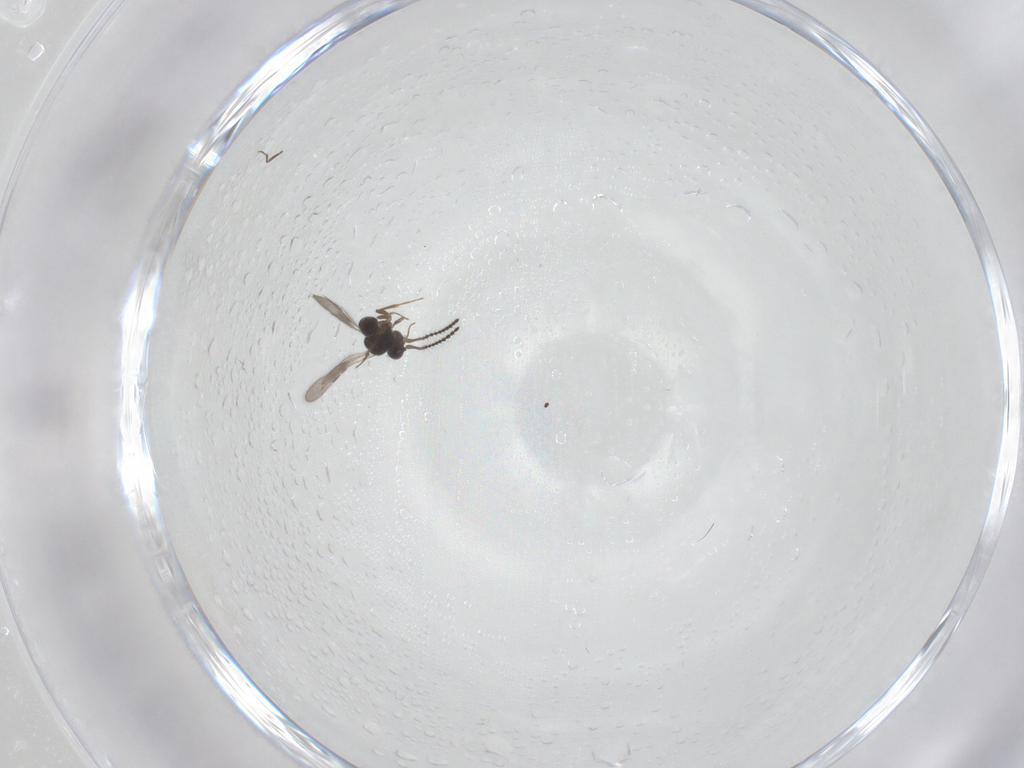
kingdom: Animalia
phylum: Arthropoda
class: Insecta
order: Hymenoptera
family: Ceraphronidae
